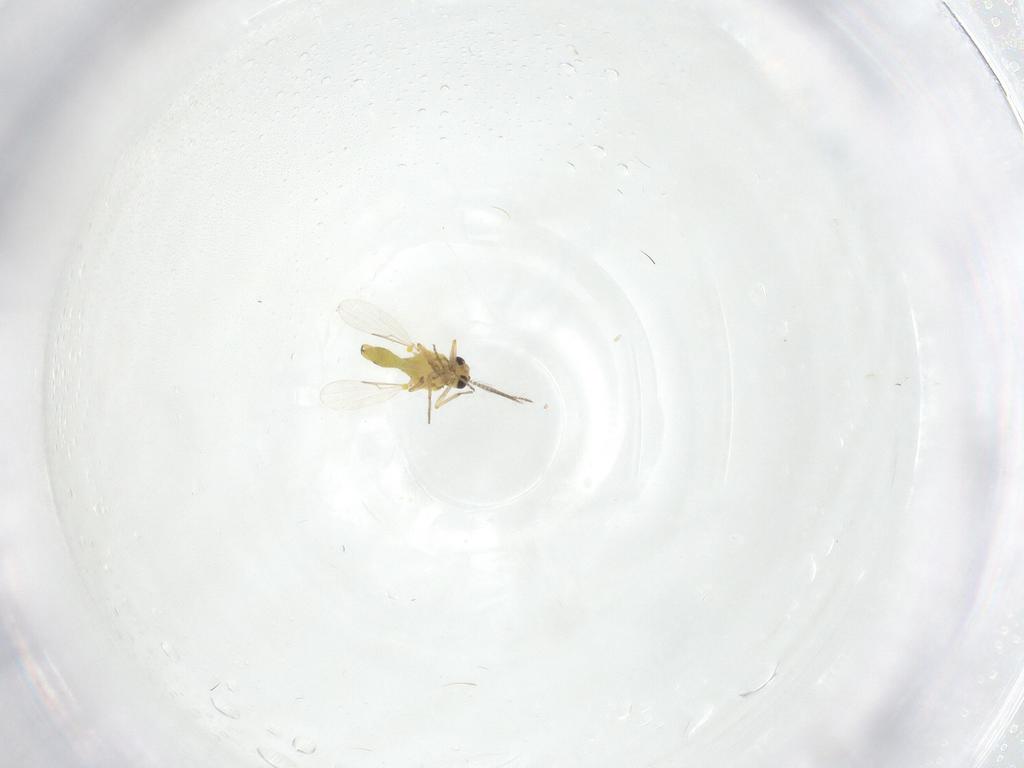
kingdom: Animalia
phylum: Arthropoda
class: Insecta
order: Diptera
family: Ceratopogonidae
